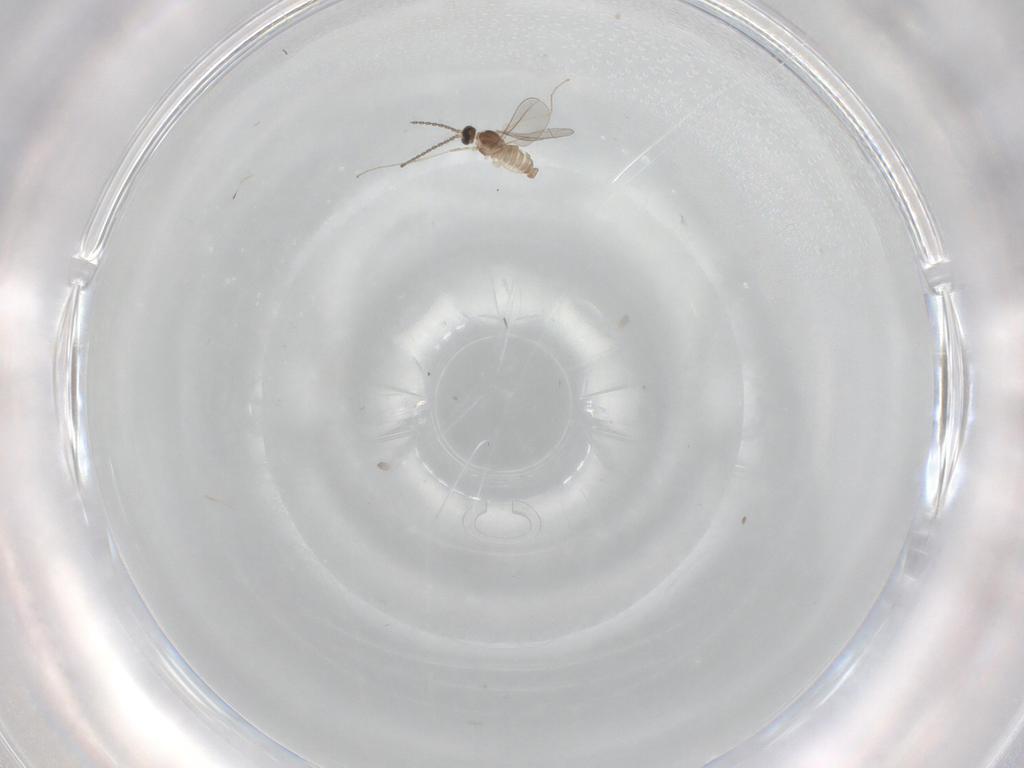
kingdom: Animalia
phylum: Arthropoda
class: Insecta
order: Diptera
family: Cecidomyiidae
